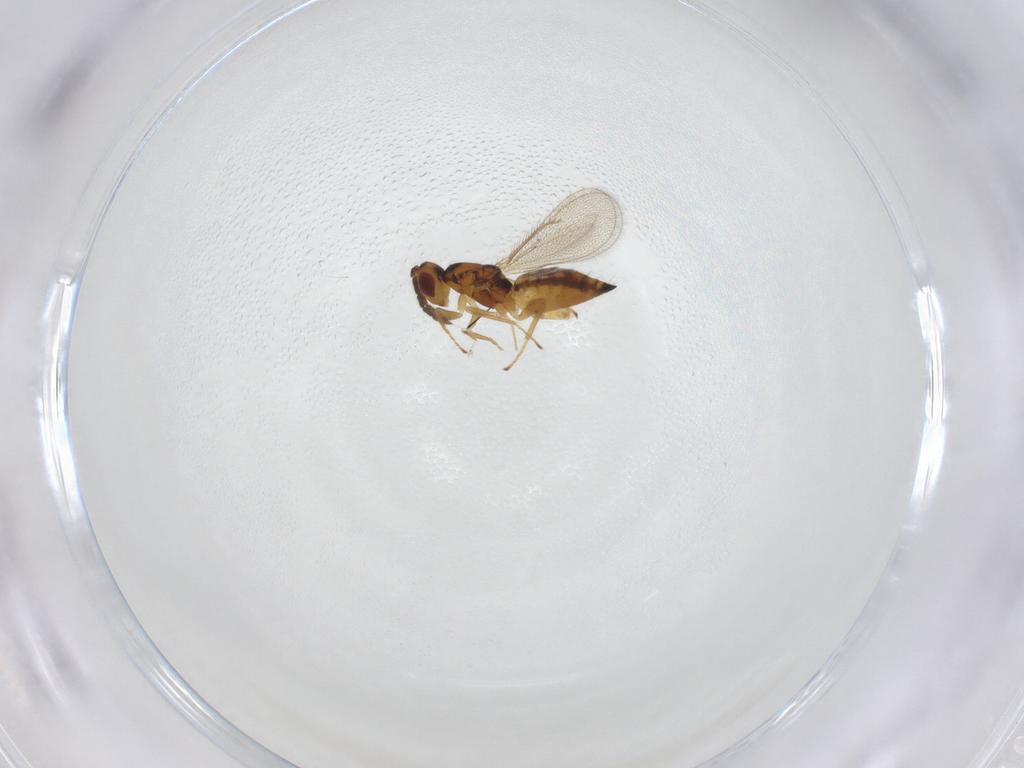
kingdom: Animalia
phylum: Arthropoda
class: Insecta
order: Hymenoptera
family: Eulophidae
